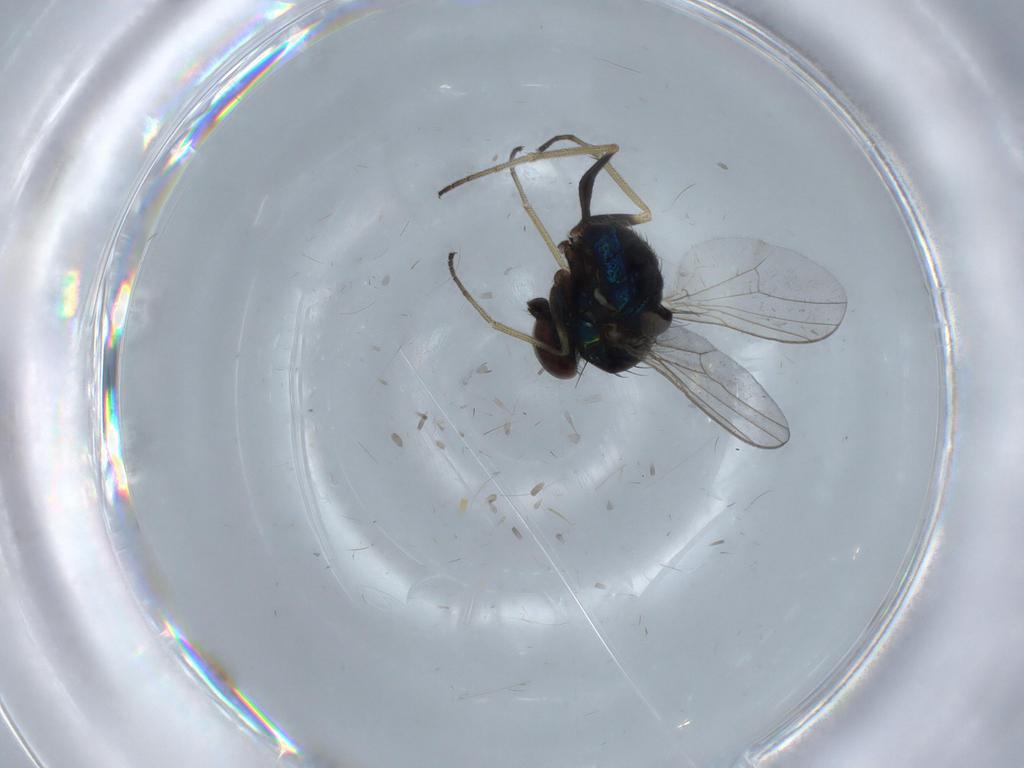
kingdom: Animalia
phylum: Arthropoda
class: Insecta
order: Diptera
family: Dolichopodidae
